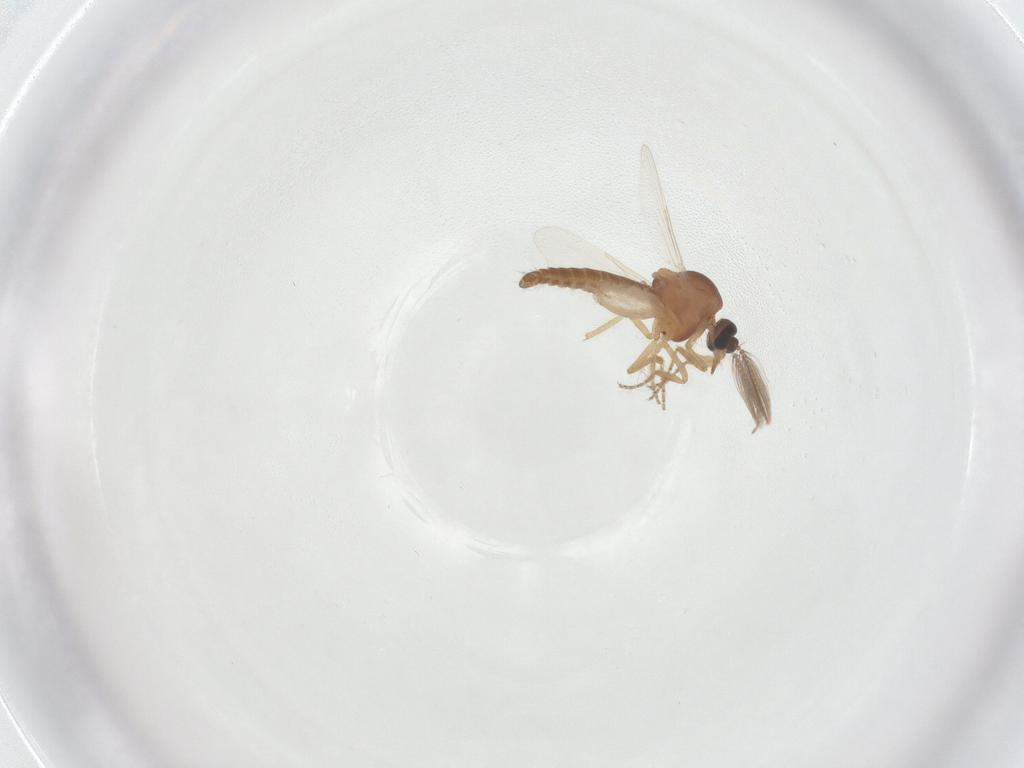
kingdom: Animalia
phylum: Arthropoda
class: Insecta
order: Diptera
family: Ceratopogonidae
